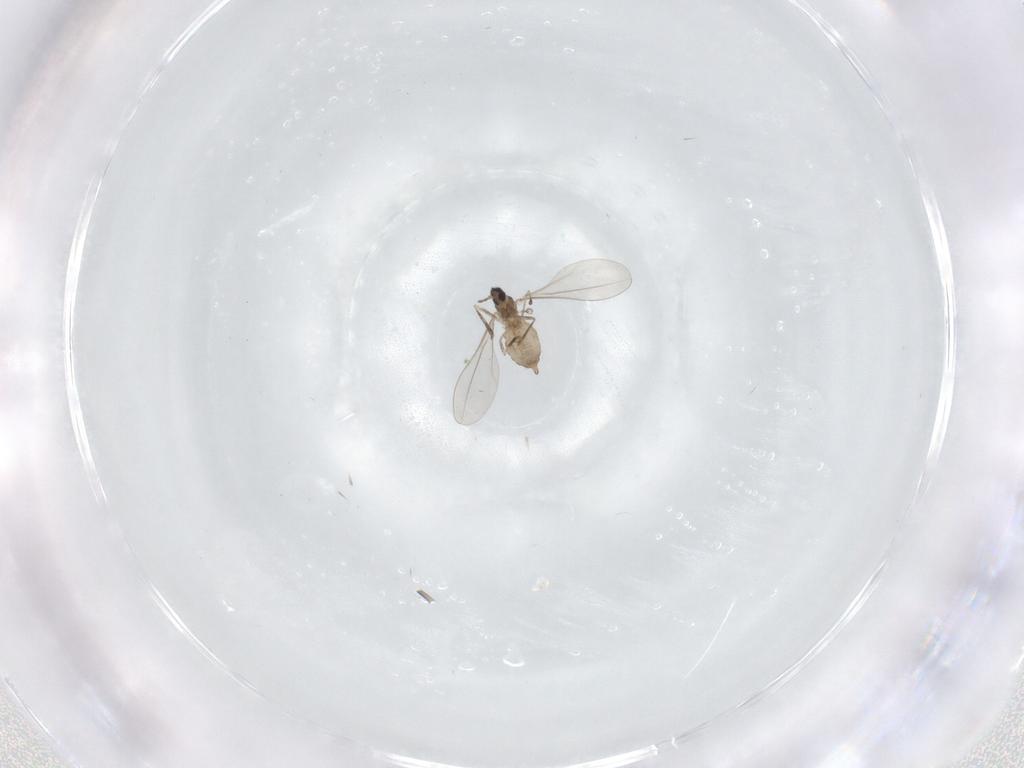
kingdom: Animalia
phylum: Arthropoda
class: Insecta
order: Diptera
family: Cecidomyiidae
